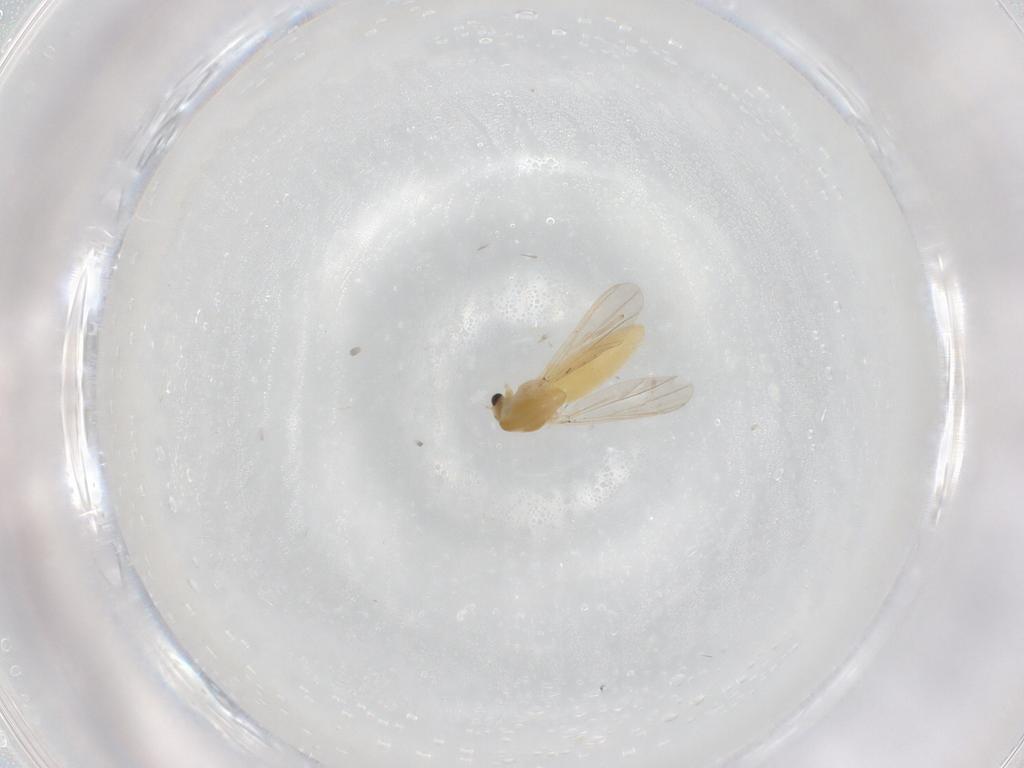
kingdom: Animalia
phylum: Arthropoda
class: Insecta
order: Diptera
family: Chironomidae
